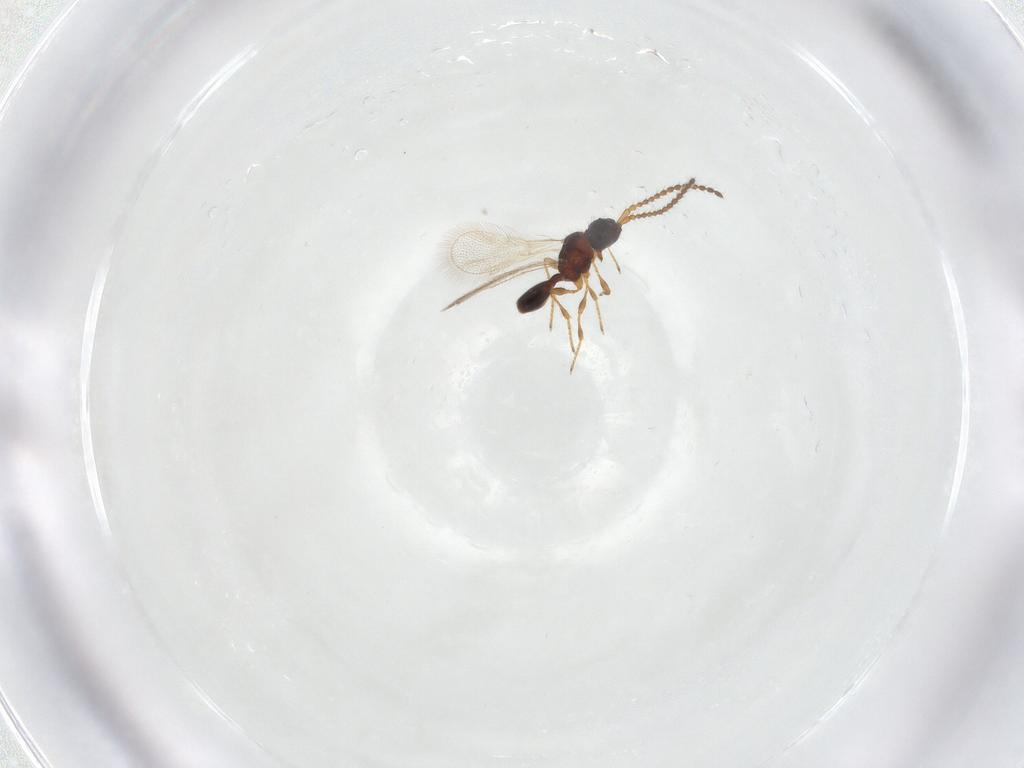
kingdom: Animalia
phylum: Arthropoda
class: Insecta
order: Hymenoptera
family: Diapriidae
